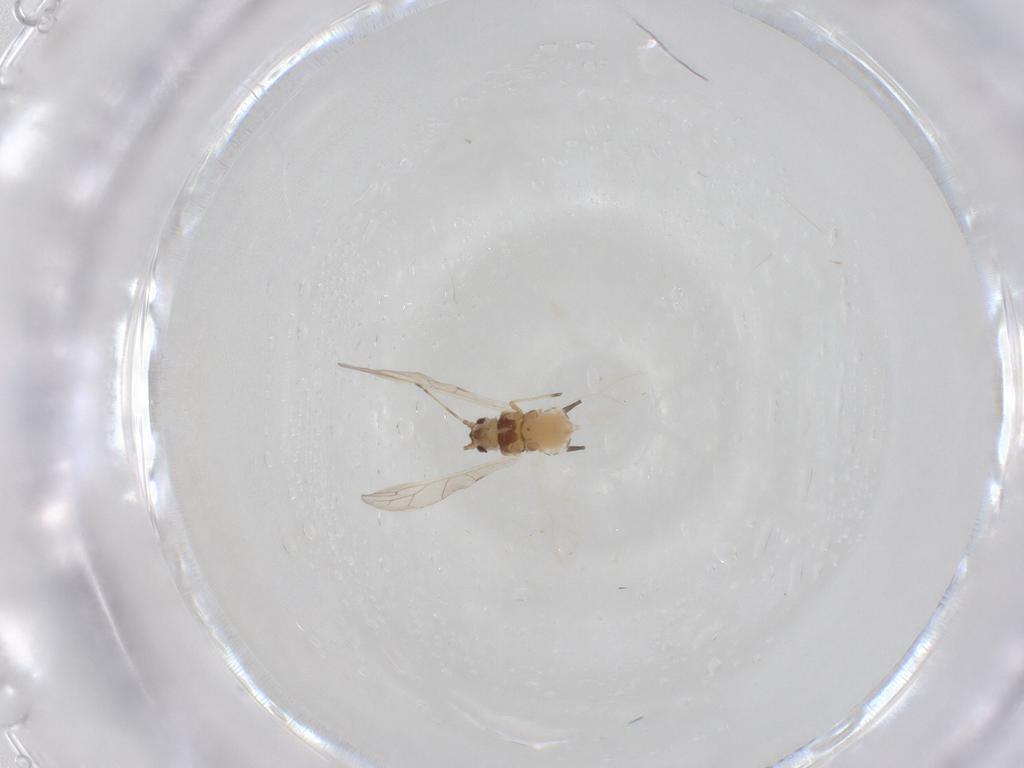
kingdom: Animalia
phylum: Arthropoda
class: Insecta
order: Hemiptera
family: Aphididae
